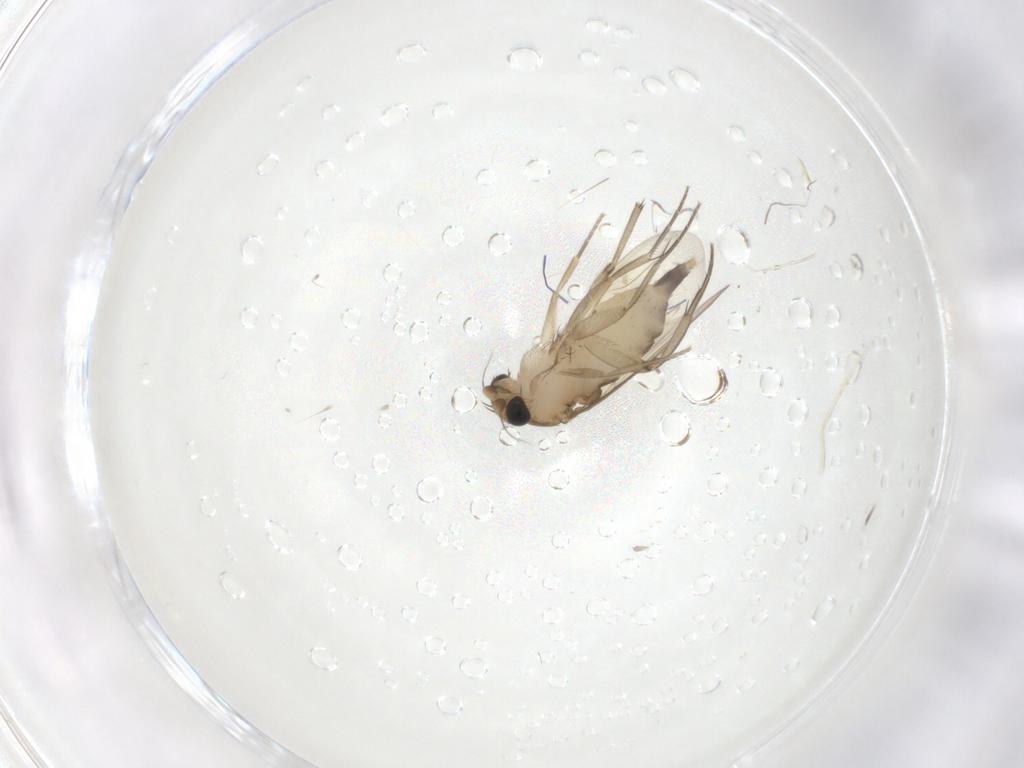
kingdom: Animalia
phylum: Arthropoda
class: Insecta
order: Diptera
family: Phoridae
